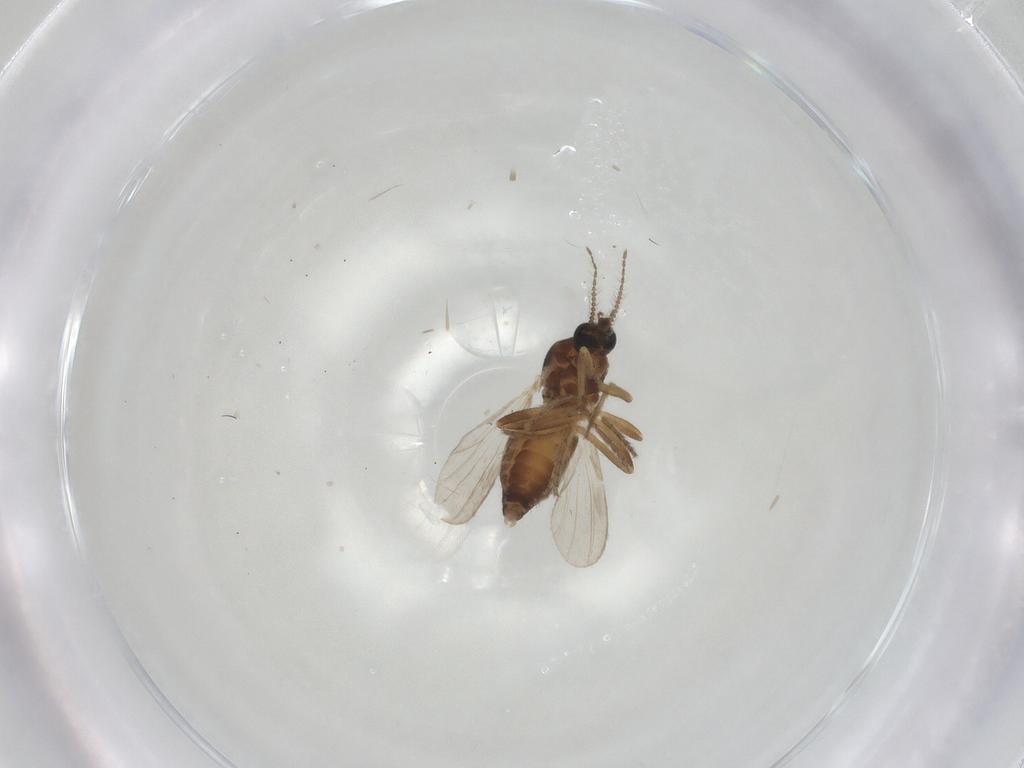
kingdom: Animalia
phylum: Arthropoda
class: Insecta
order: Diptera
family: Ceratopogonidae
